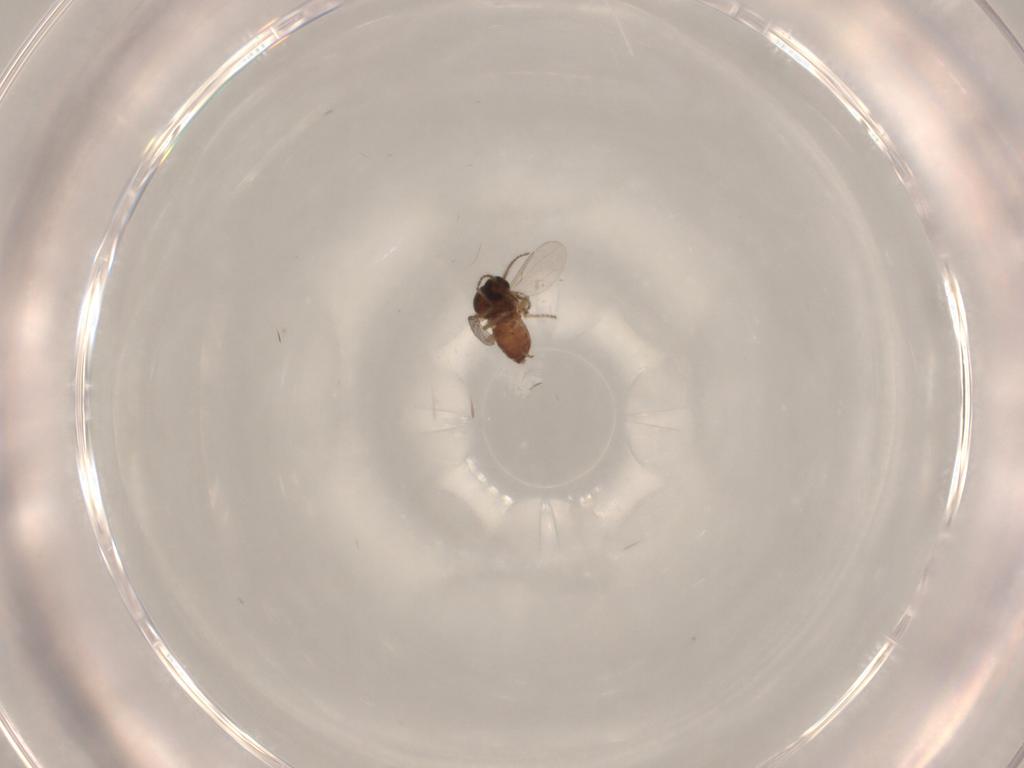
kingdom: Animalia
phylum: Arthropoda
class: Insecta
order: Diptera
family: Ceratopogonidae
